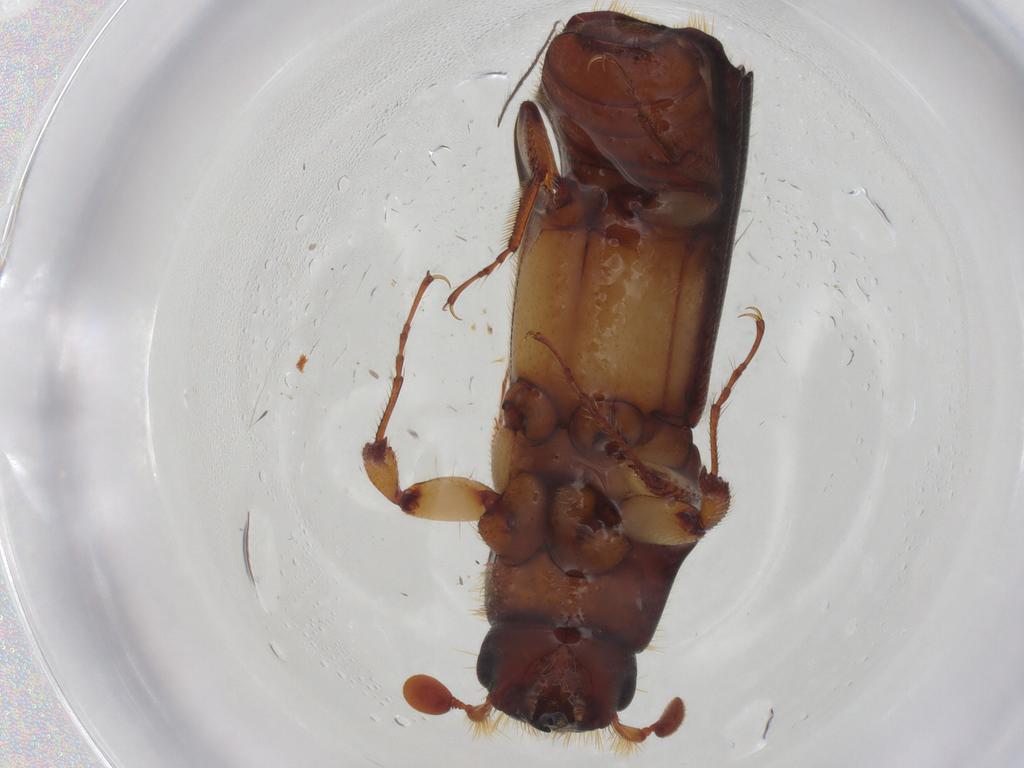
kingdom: Animalia
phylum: Arthropoda
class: Insecta
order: Coleoptera
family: Curculionidae
